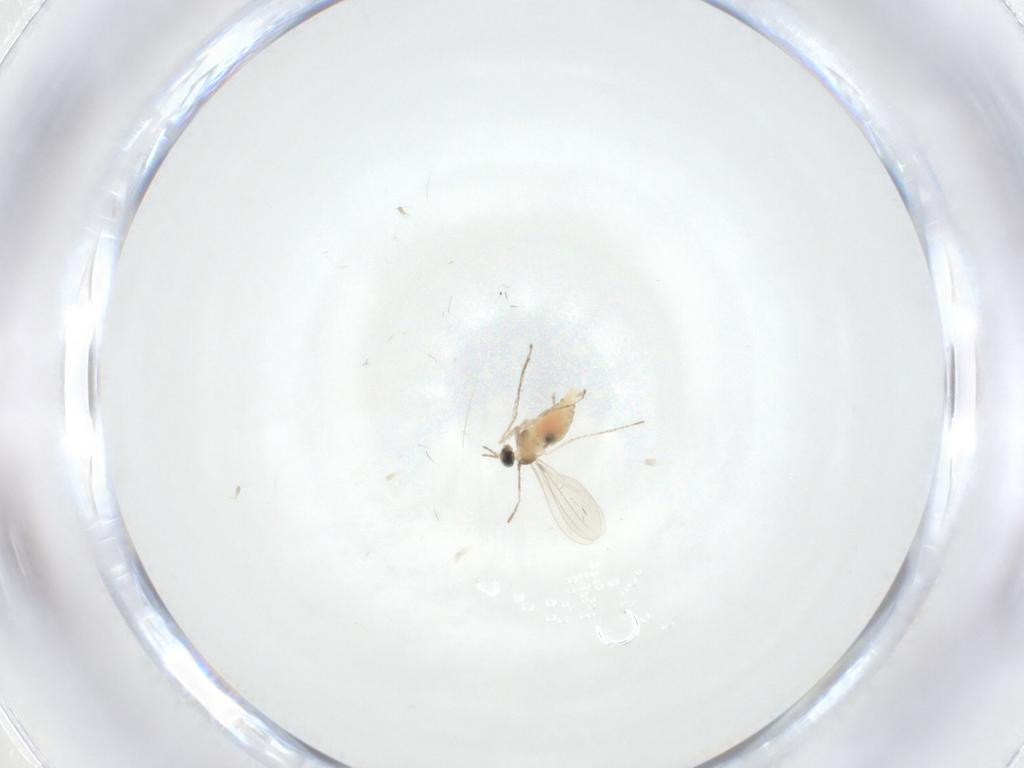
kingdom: Animalia
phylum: Arthropoda
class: Insecta
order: Diptera
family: Cecidomyiidae
